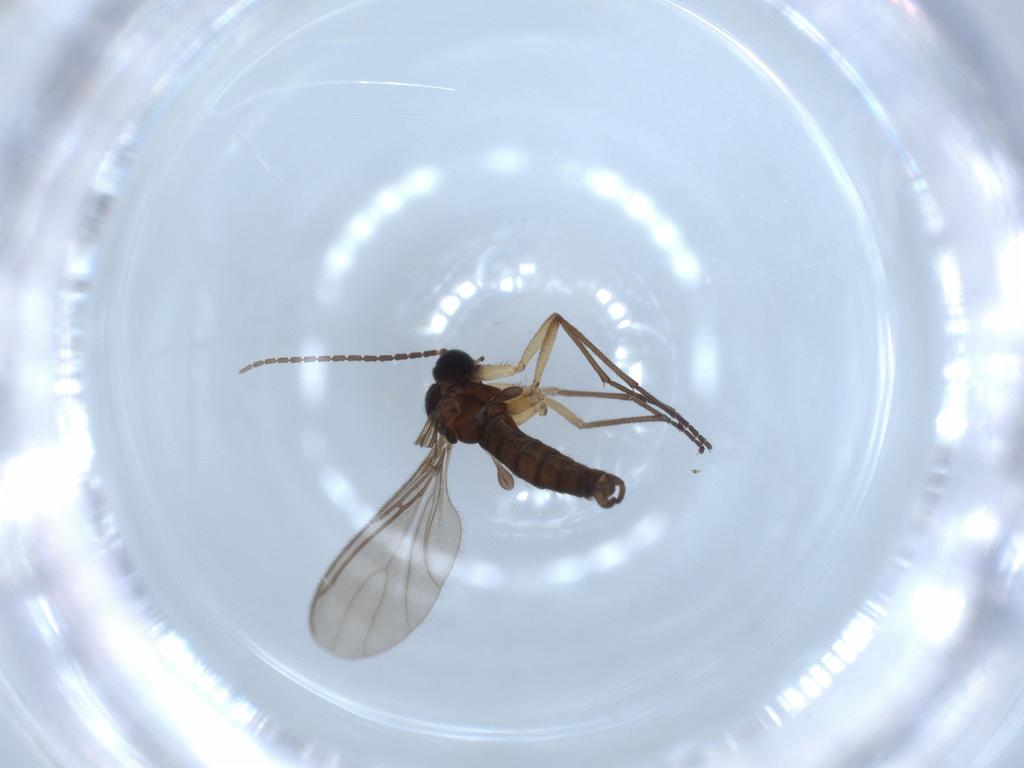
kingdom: Animalia
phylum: Arthropoda
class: Insecta
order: Diptera
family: Sciaridae
